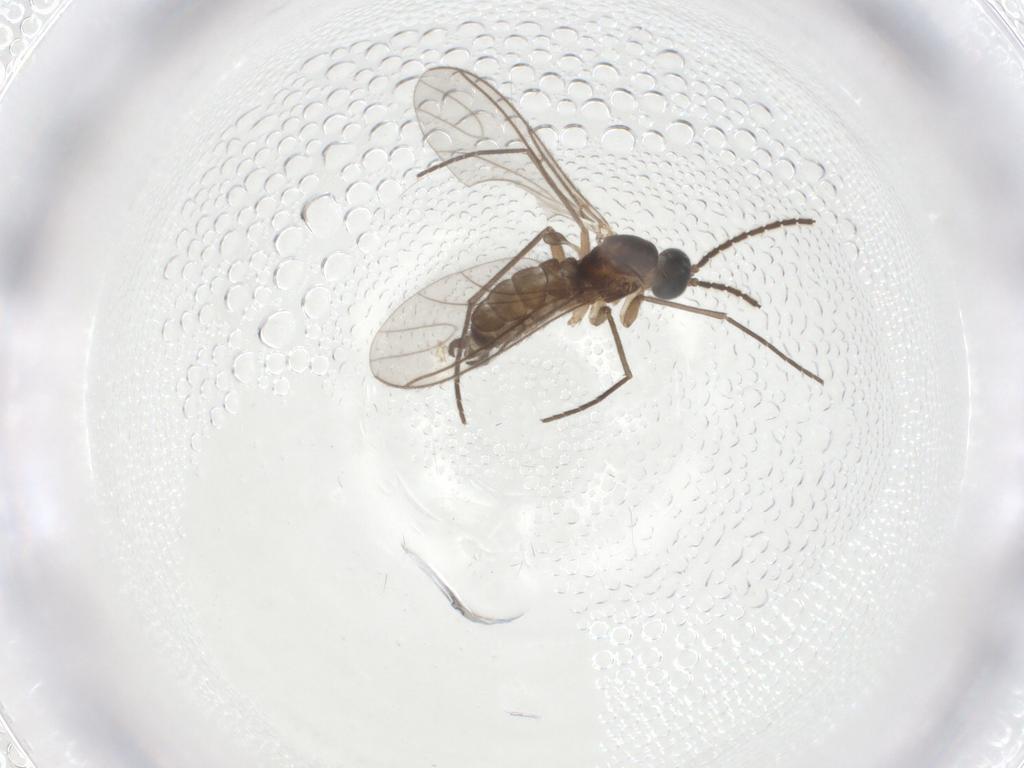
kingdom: Animalia
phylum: Arthropoda
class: Insecta
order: Diptera
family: Sciaridae
